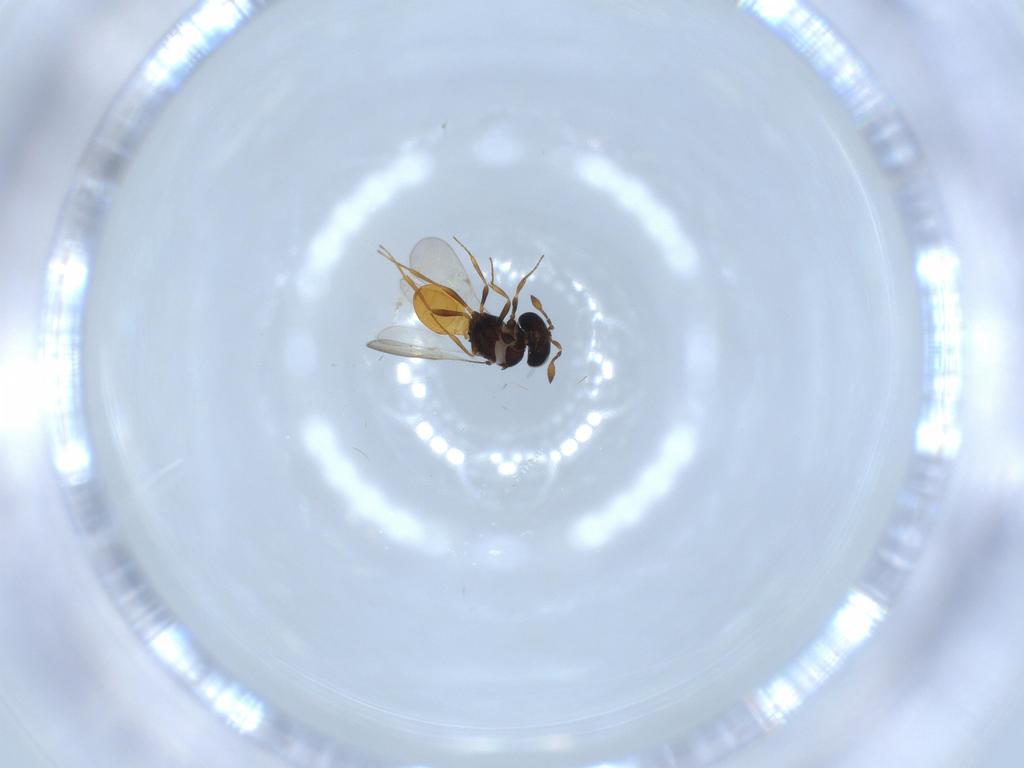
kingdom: Animalia
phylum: Arthropoda
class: Insecta
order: Hymenoptera
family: Scelionidae
